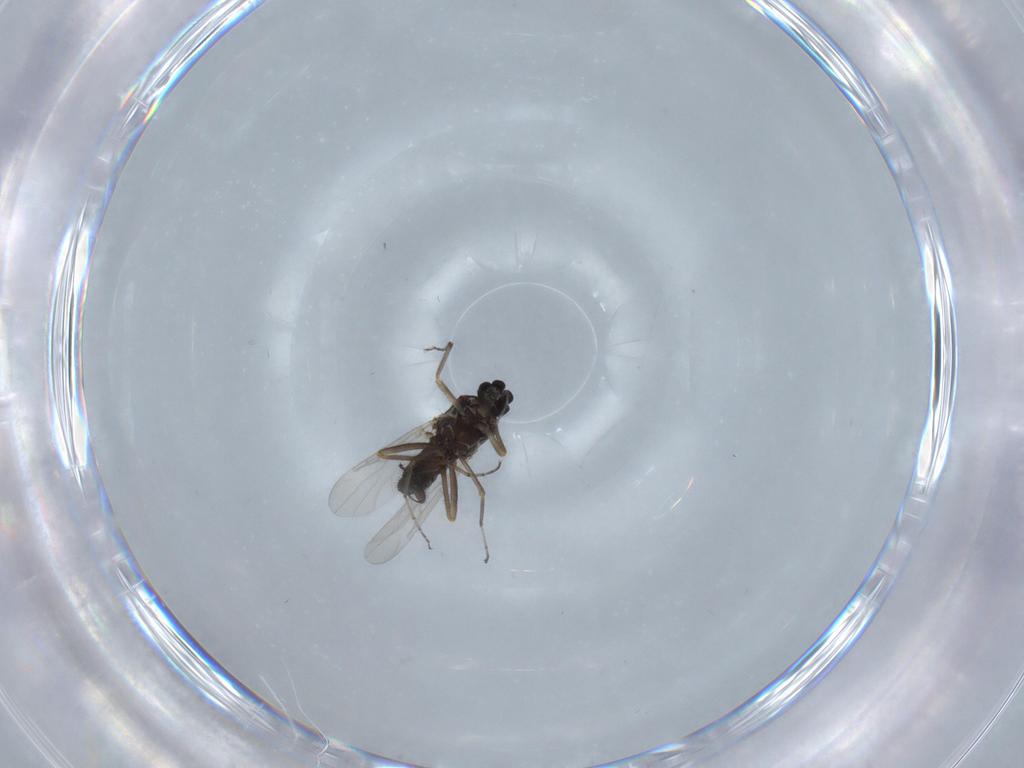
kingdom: Animalia
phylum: Arthropoda
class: Insecta
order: Diptera
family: Ceratopogonidae
